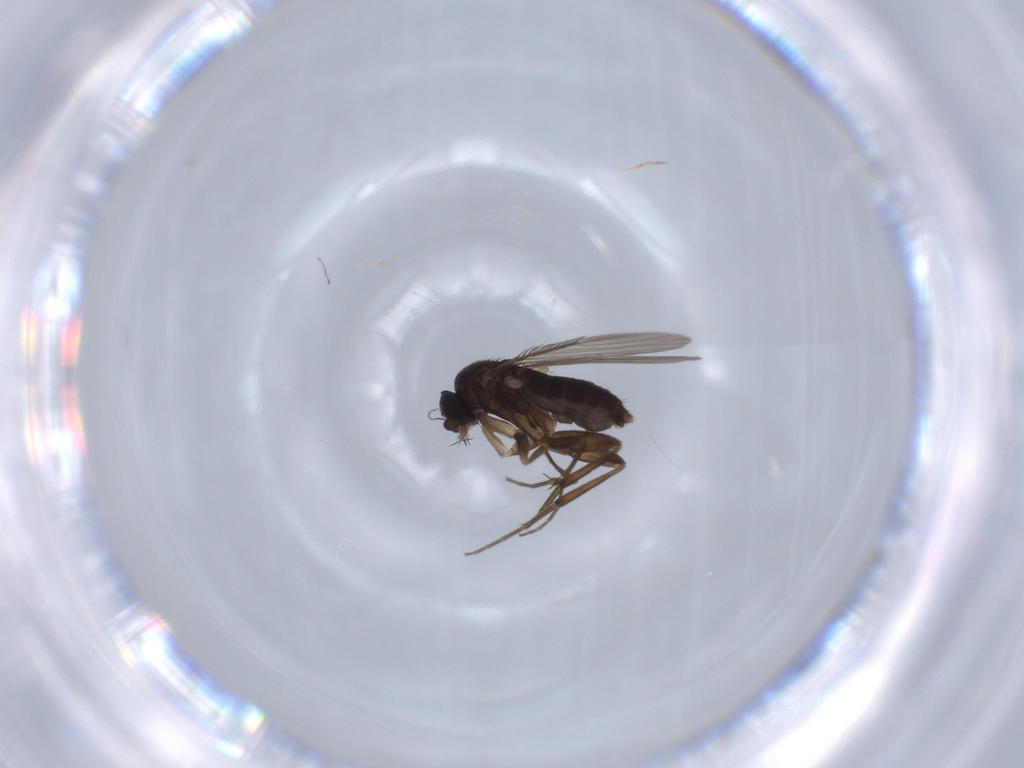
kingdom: Animalia
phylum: Arthropoda
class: Insecta
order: Diptera
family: Phoridae
